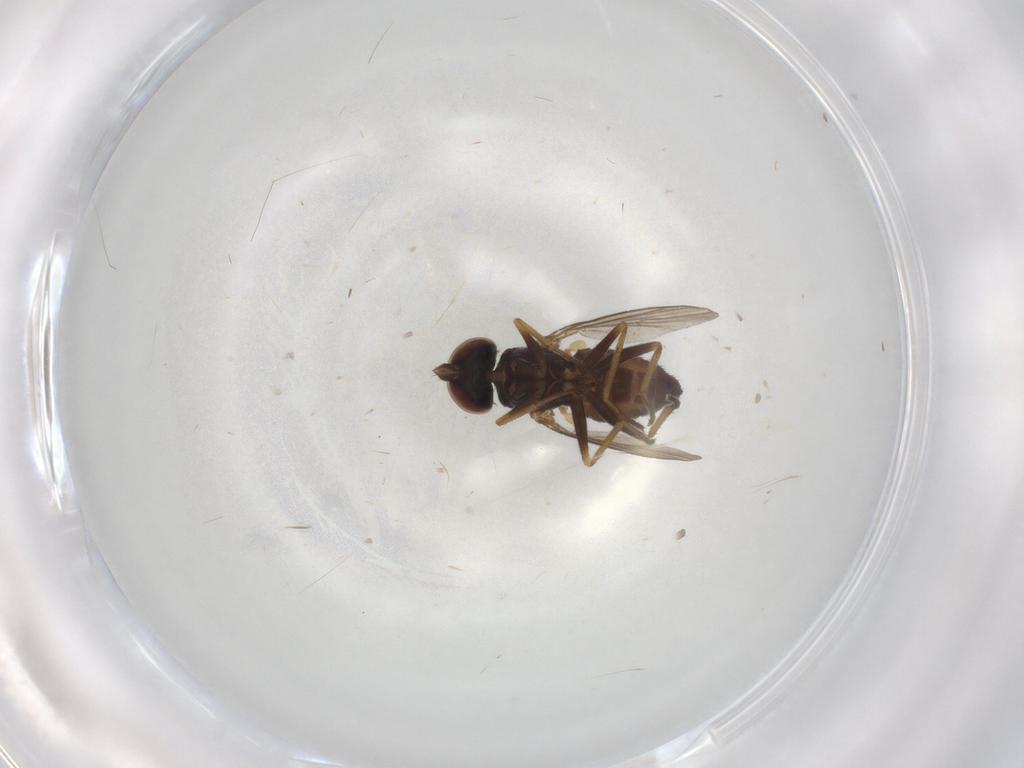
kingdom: Animalia
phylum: Arthropoda
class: Insecta
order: Diptera
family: Dolichopodidae
